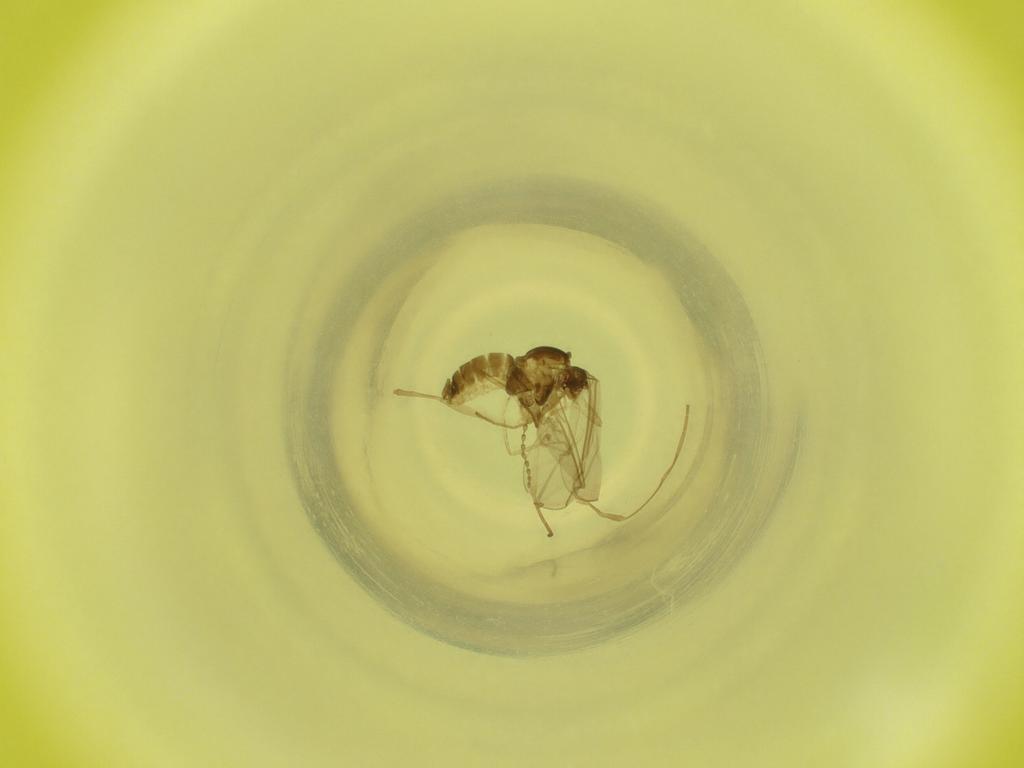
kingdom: Animalia
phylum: Arthropoda
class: Insecta
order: Diptera
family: Cecidomyiidae
